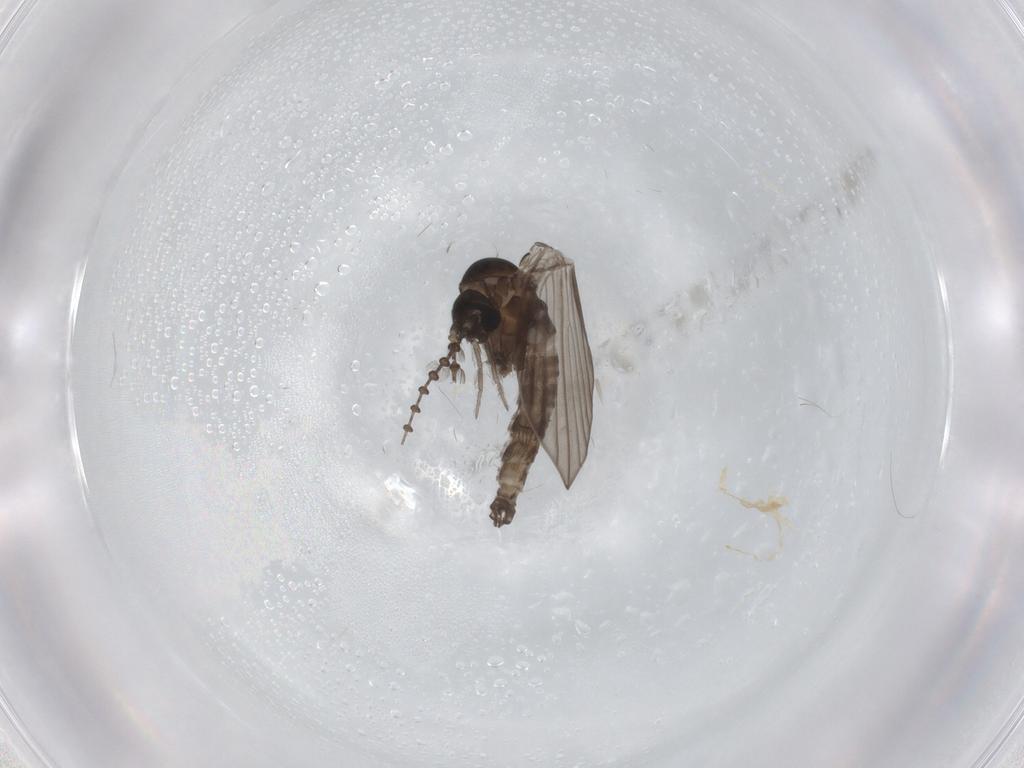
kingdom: Animalia
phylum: Arthropoda
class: Insecta
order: Diptera
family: Psychodidae
